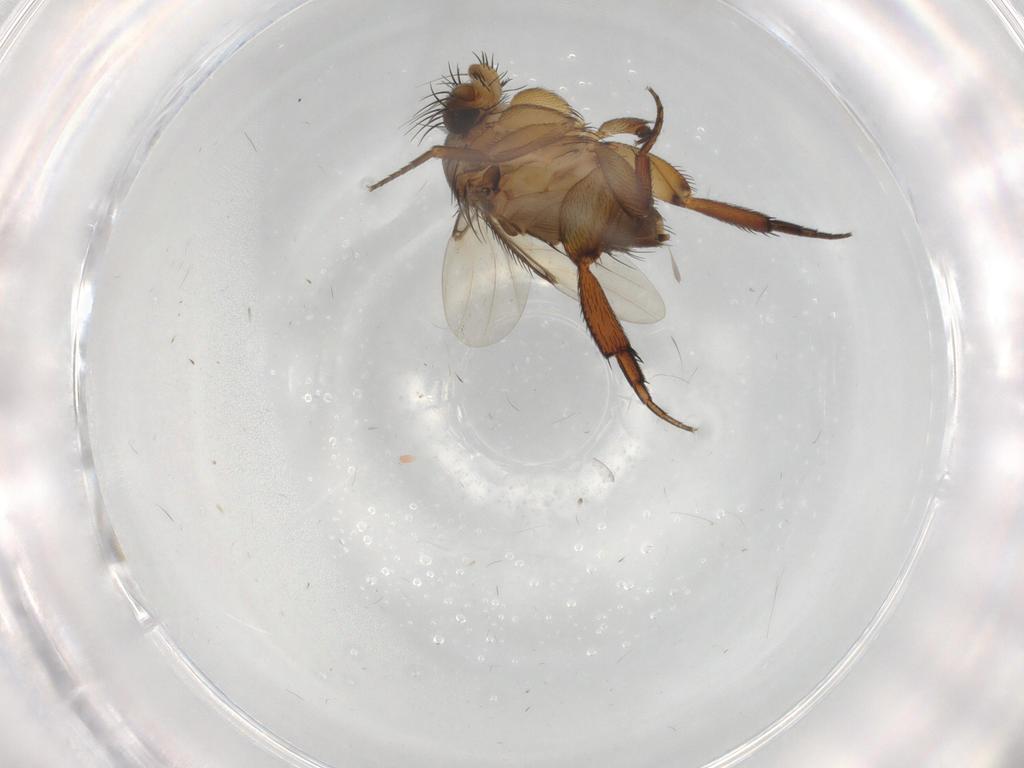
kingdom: Animalia
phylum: Arthropoda
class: Insecta
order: Diptera
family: Phoridae
